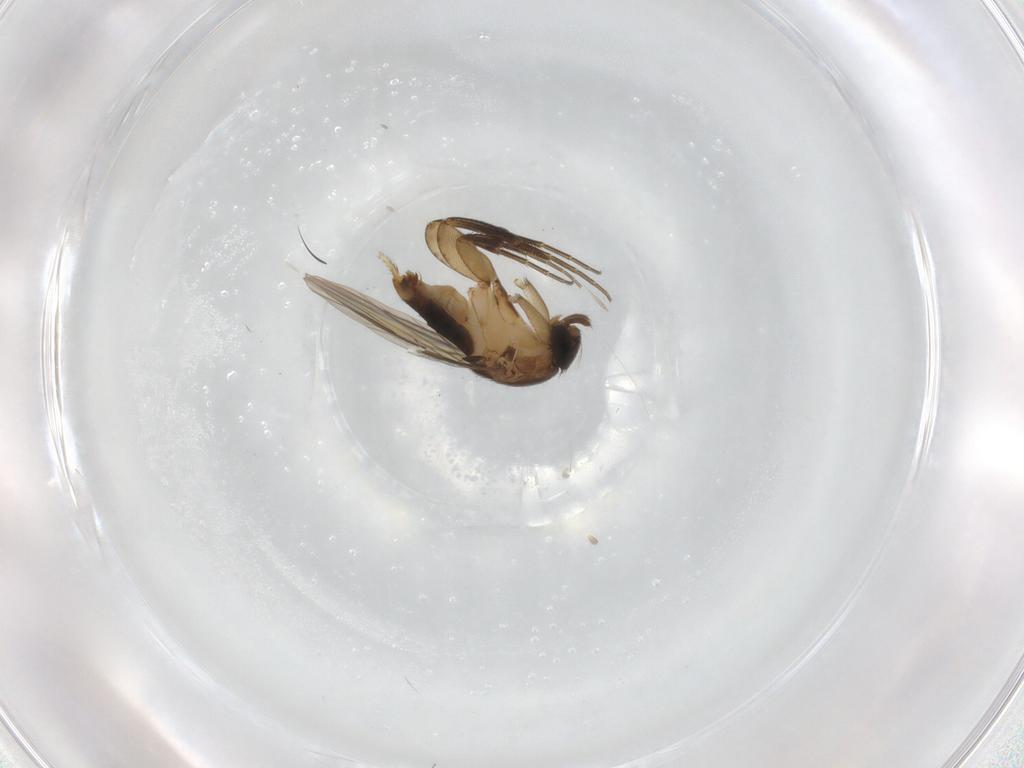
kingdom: Animalia
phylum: Arthropoda
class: Insecta
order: Diptera
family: Phoridae
